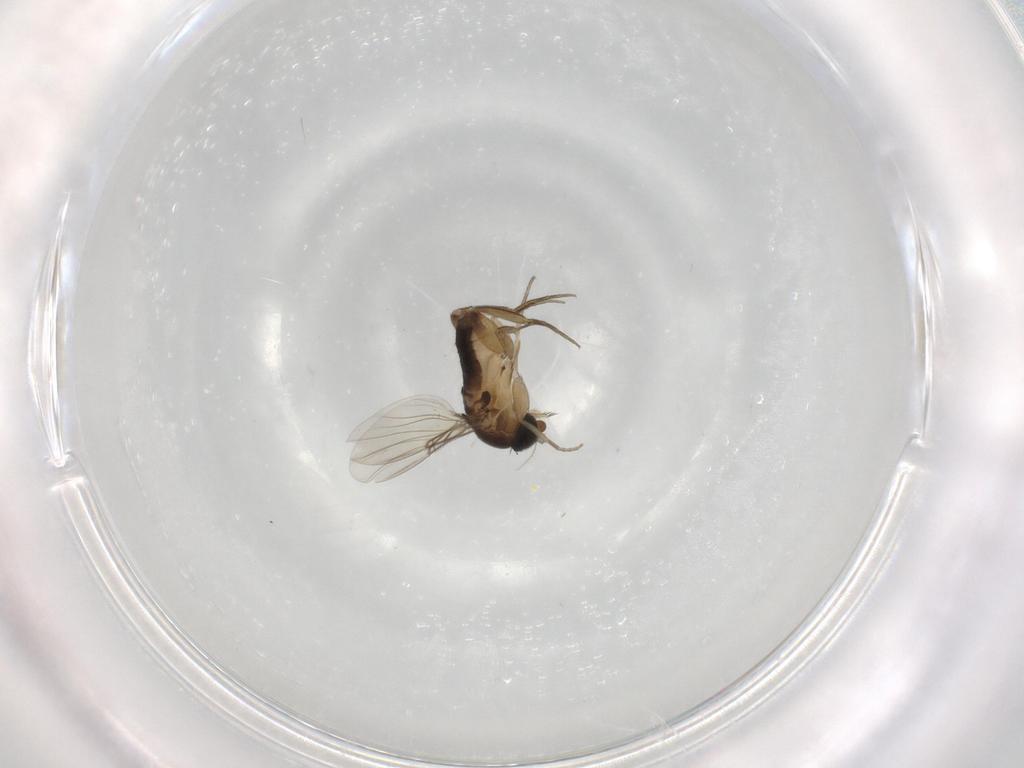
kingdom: Animalia
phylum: Arthropoda
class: Insecta
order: Diptera
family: Phoridae
